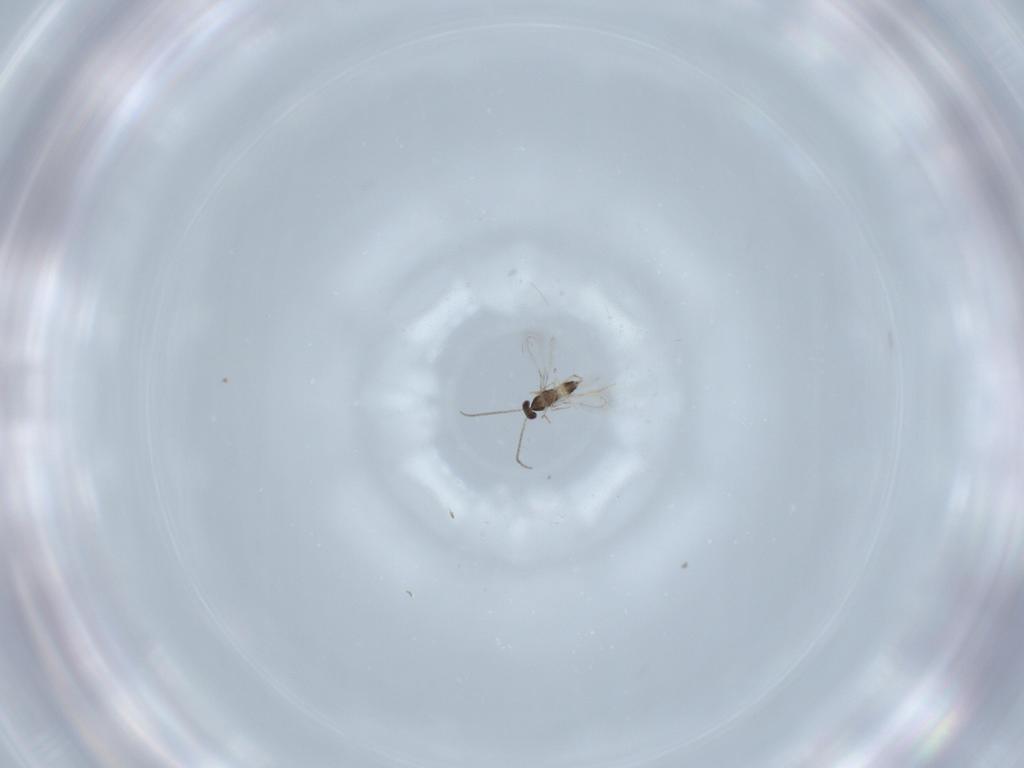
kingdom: Animalia
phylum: Arthropoda
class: Insecta
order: Hymenoptera
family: Mymaridae
